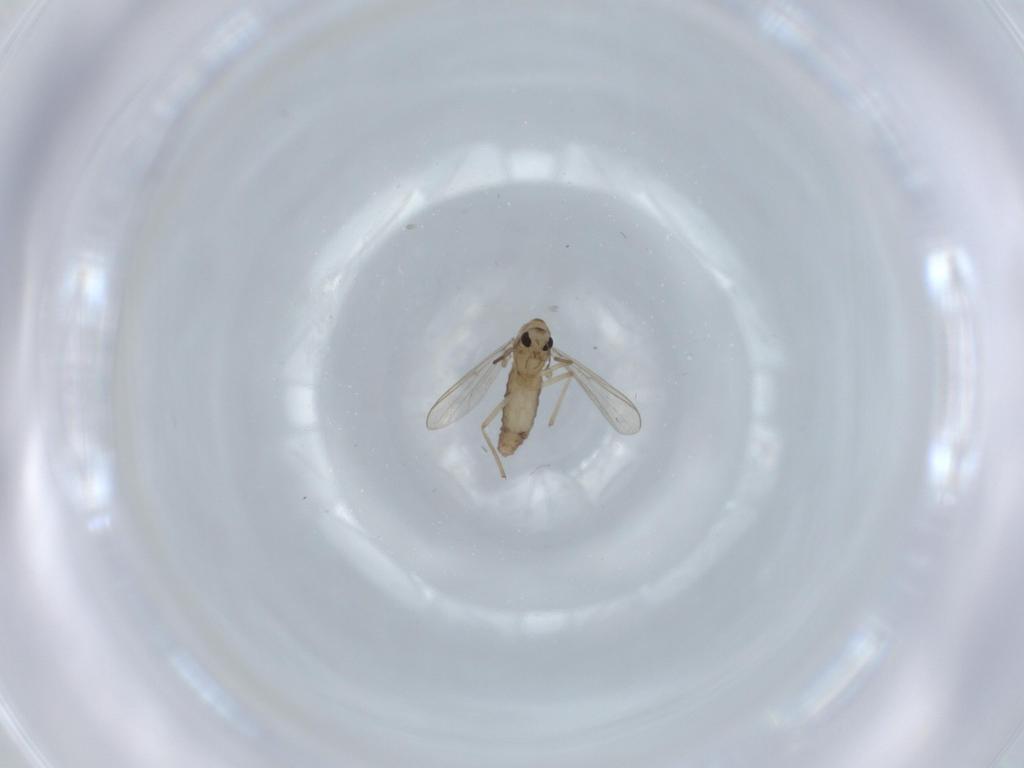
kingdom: Animalia
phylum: Arthropoda
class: Insecta
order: Diptera
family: Chironomidae
